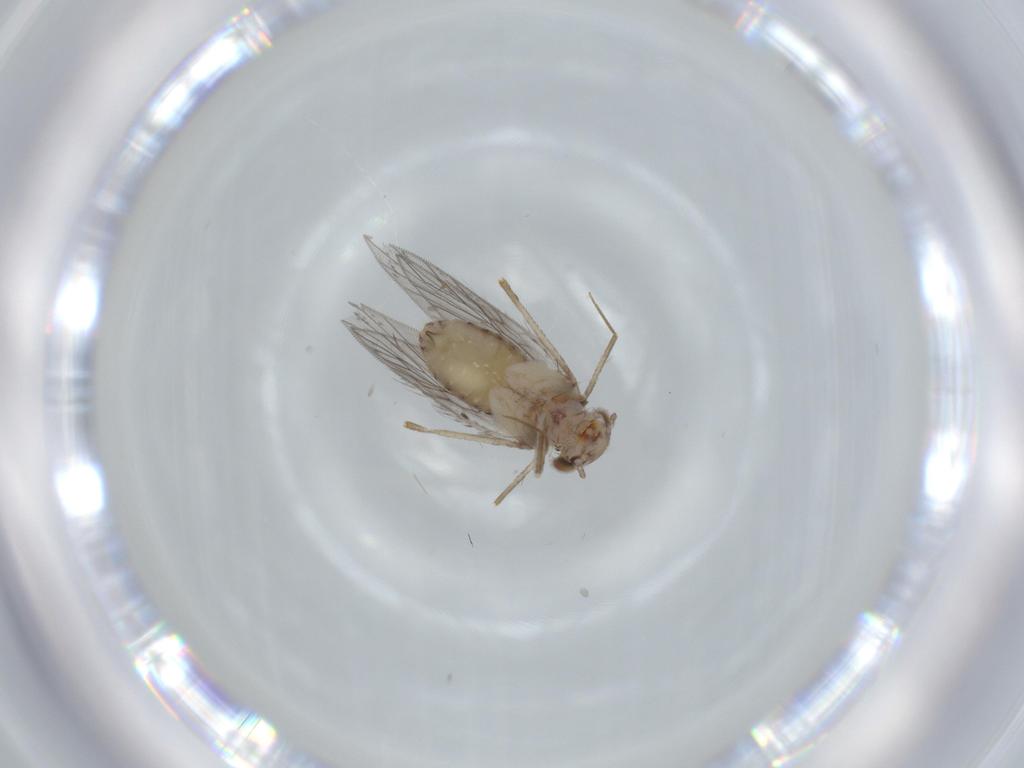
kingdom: Animalia
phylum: Arthropoda
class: Insecta
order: Psocodea
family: Lepidopsocidae
